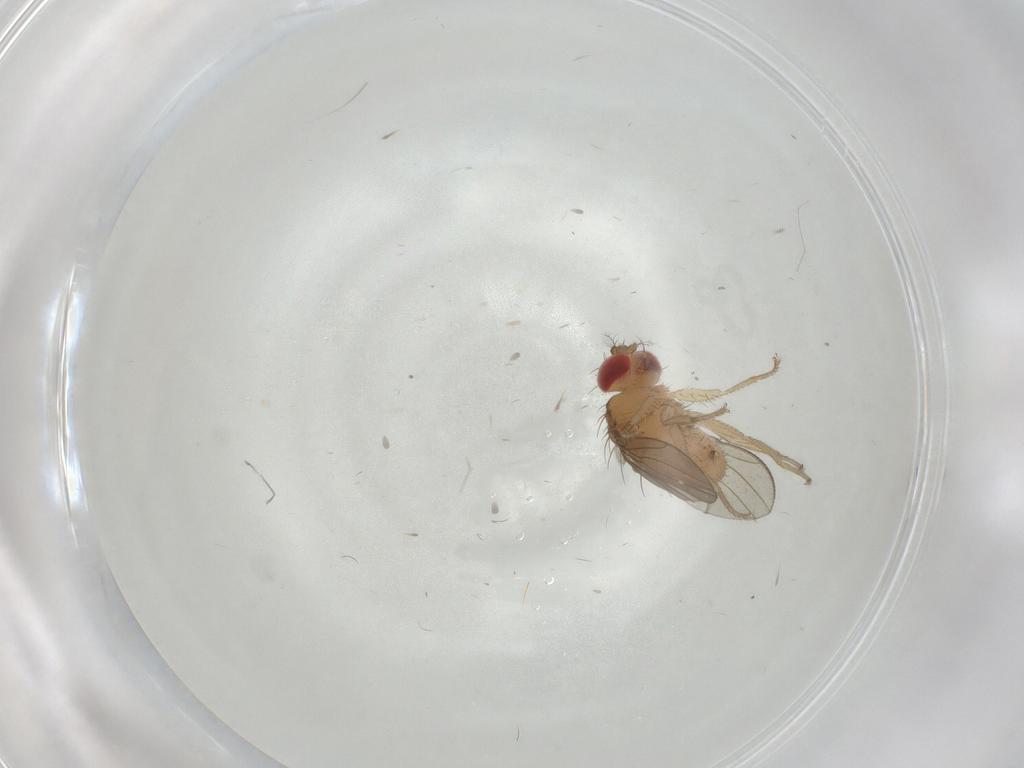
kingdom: Animalia
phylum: Arthropoda
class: Insecta
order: Diptera
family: Drosophilidae
